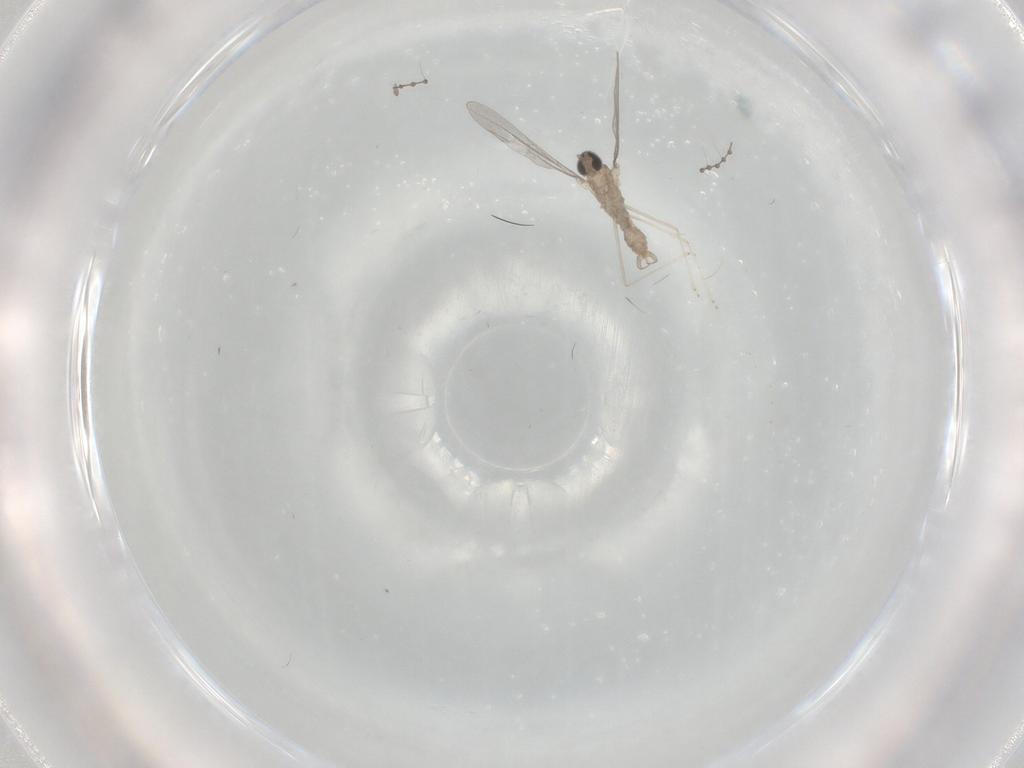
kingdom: Animalia
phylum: Arthropoda
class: Insecta
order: Diptera
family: Cecidomyiidae
